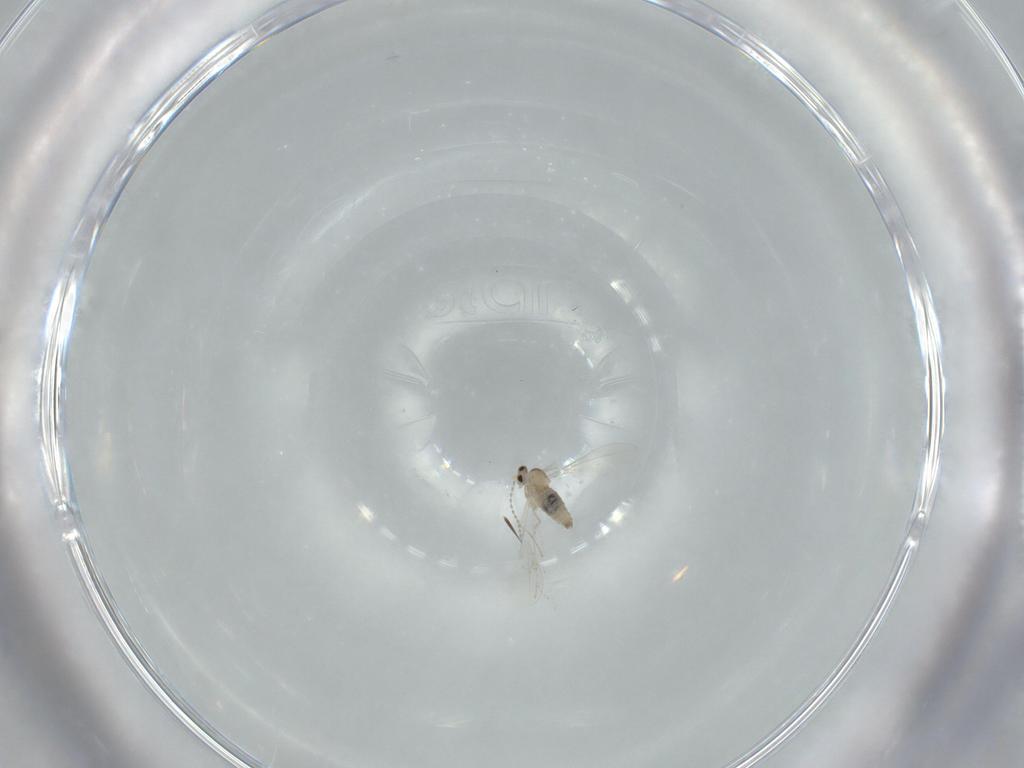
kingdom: Animalia
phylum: Arthropoda
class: Insecta
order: Diptera
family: Cecidomyiidae
